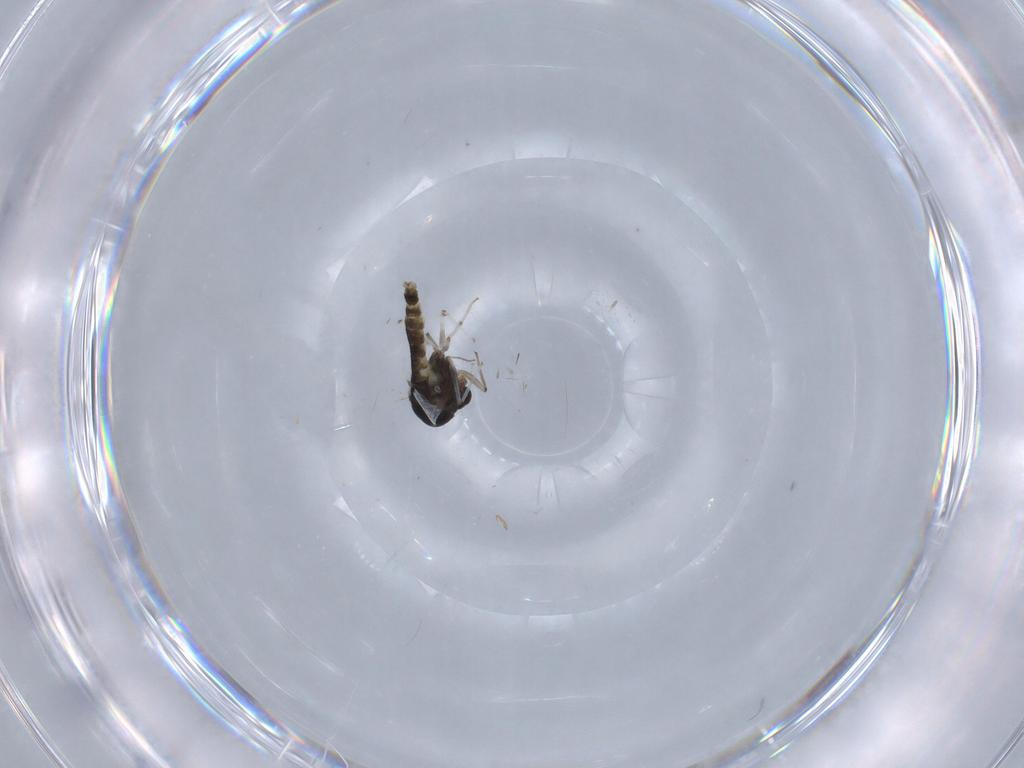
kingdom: Animalia
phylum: Arthropoda
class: Insecta
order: Diptera
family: Chironomidae
